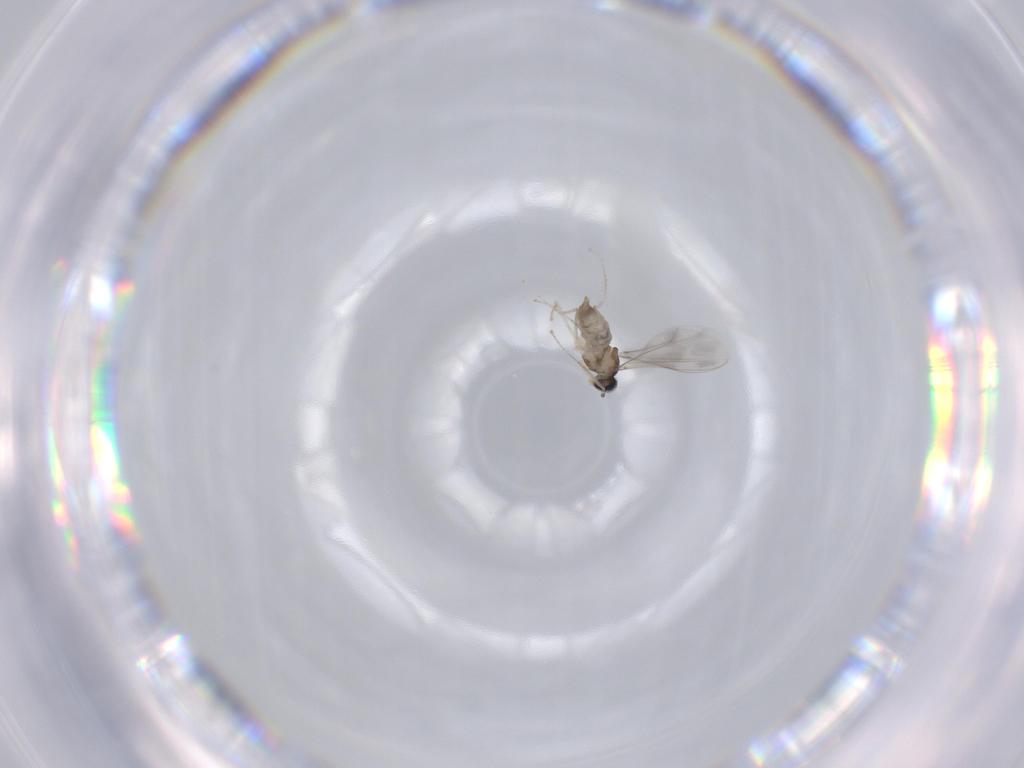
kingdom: Animalia
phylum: Arthropoda
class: Insecta
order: Diptera
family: Cecidomyiidae
